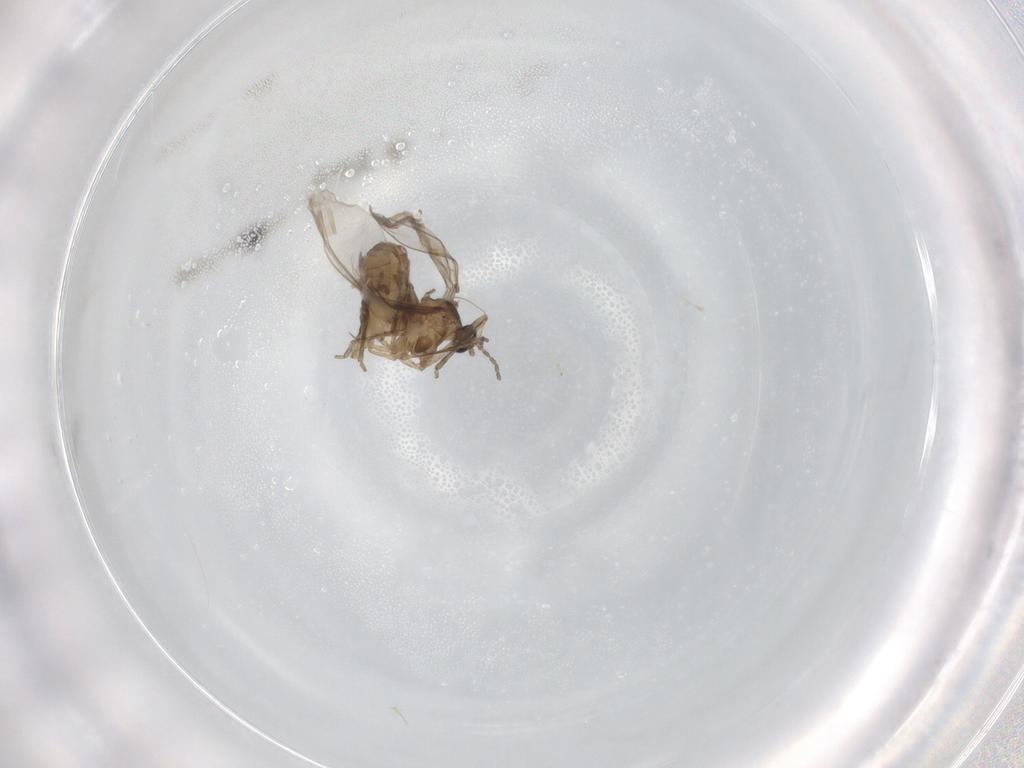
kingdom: Animalia
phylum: Arthropoda
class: Insecta
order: Diptera
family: Cecidomyiidae
